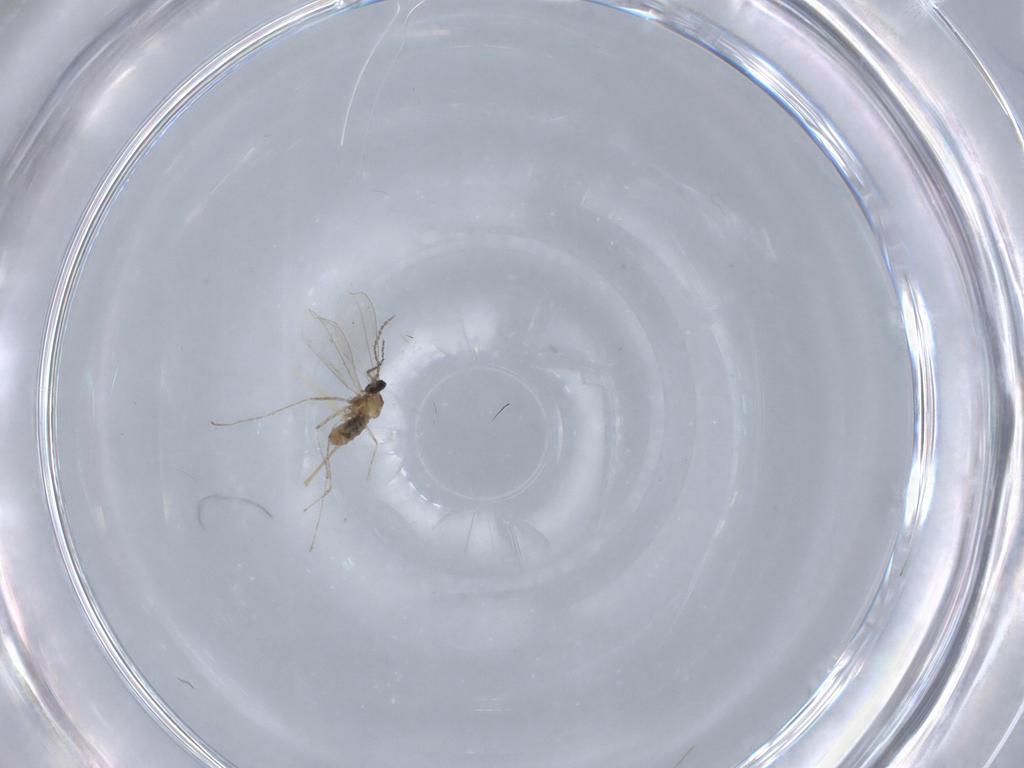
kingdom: Animalia
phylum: Arthropoda
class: Insecta
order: Diptera
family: Chironomidae
